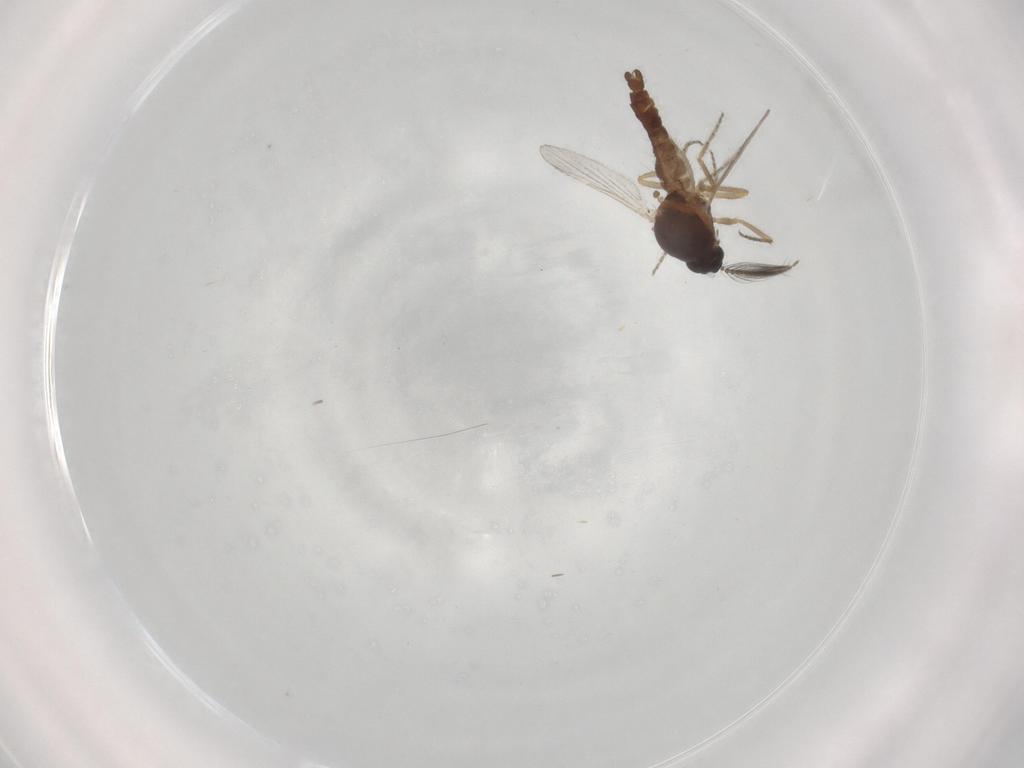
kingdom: Animalia
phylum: Arthropoda
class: Insecta
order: Diptera
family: Ceratopogonidae
